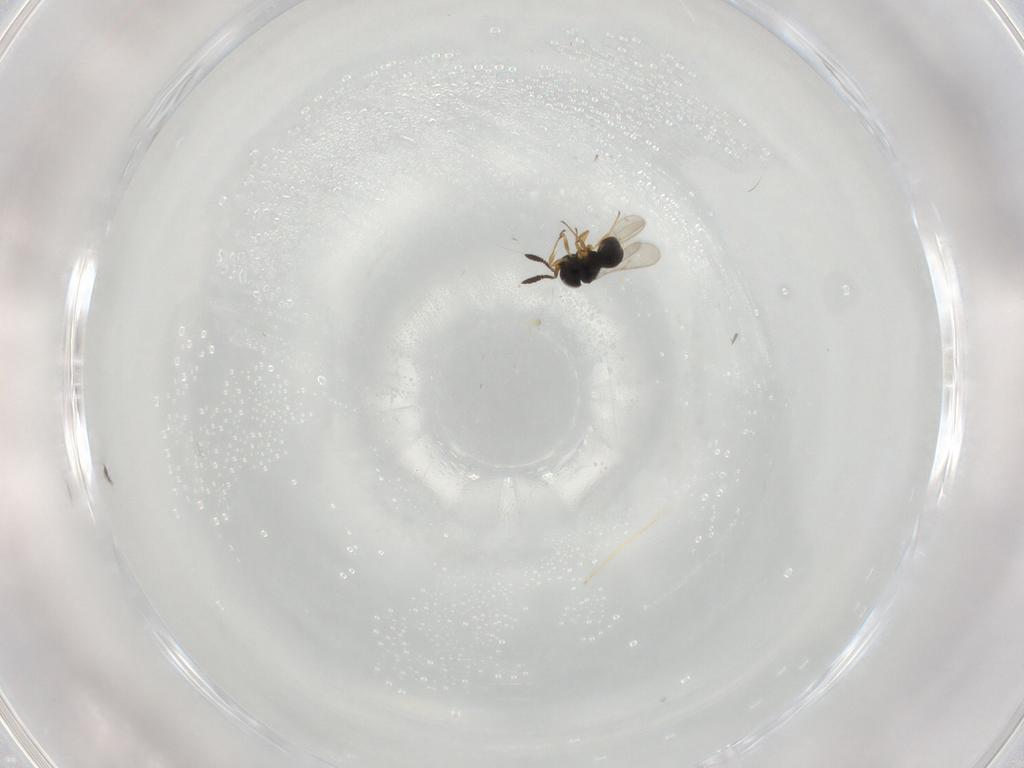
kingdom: Animalia
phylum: Arthropoda
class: Insecta
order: Hymenoptera
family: Scelionidae
